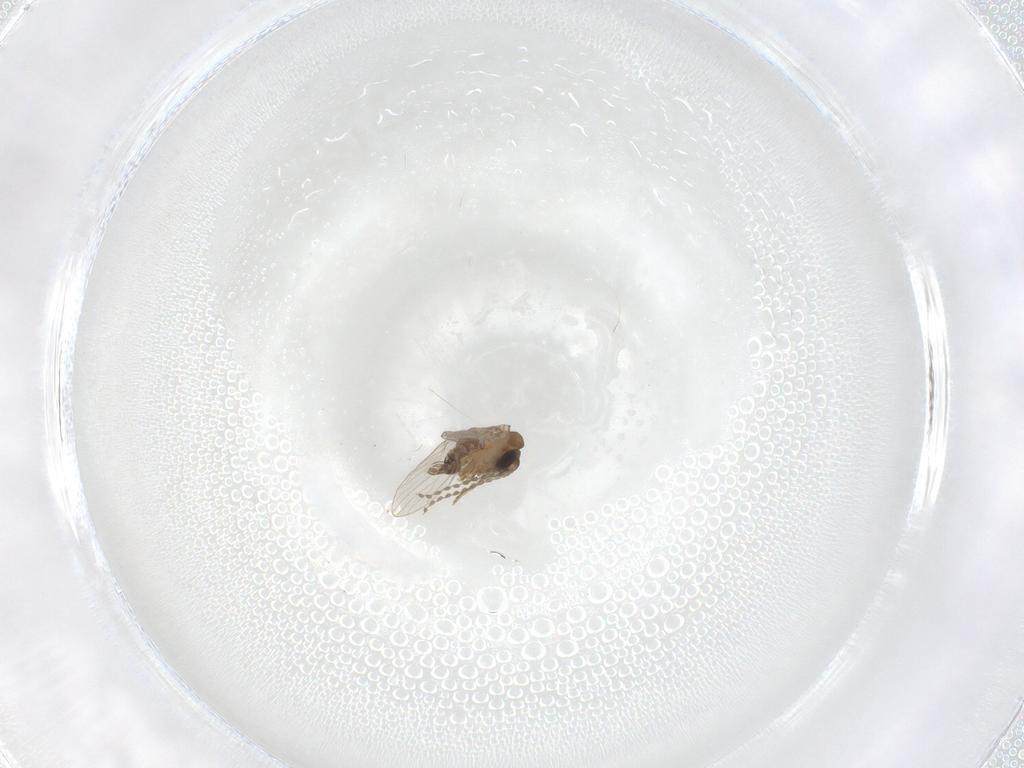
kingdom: Animalia
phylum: Arthropoda
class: Insecta
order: Diptera
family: Psychodidae
